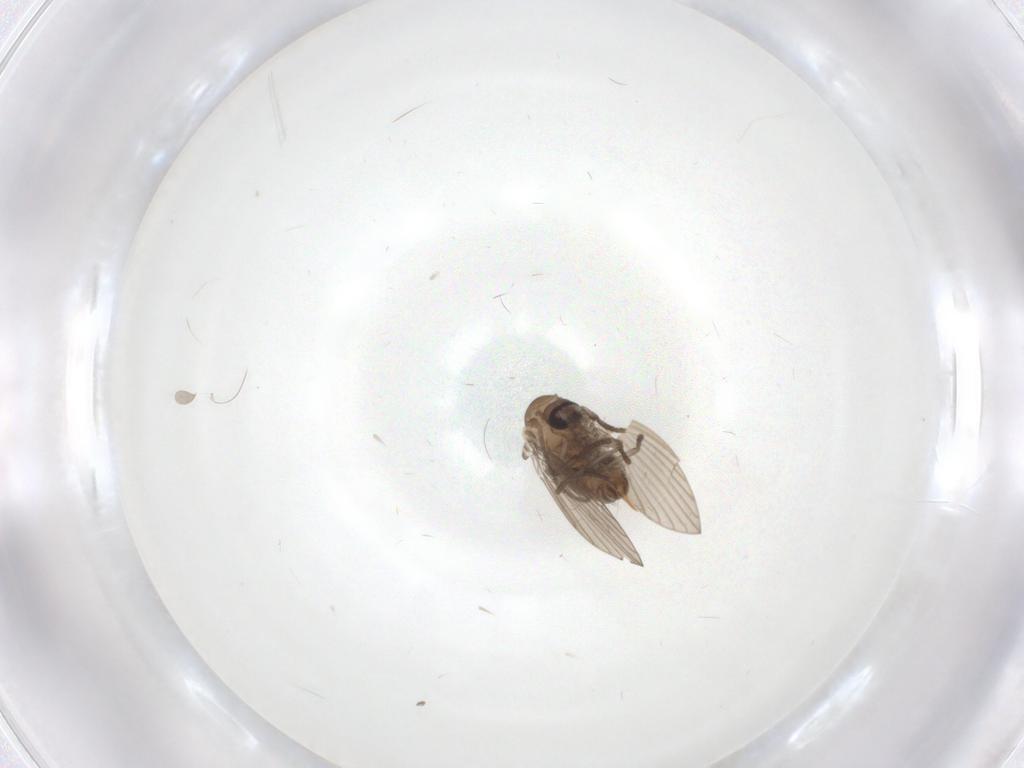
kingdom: Animalia
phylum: Arthropoda
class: Insecta
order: Diptera
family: Psychodidae
